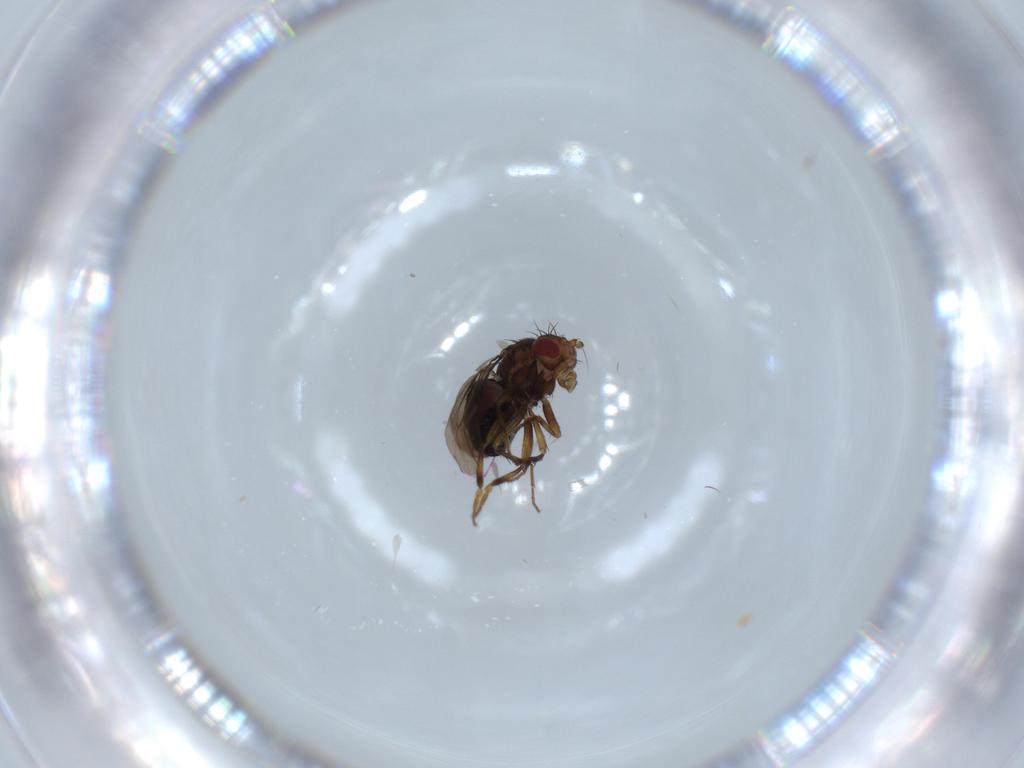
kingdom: Animalia
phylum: Arthropoda
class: Insecta
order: Diptera
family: Sphaeroceridae
